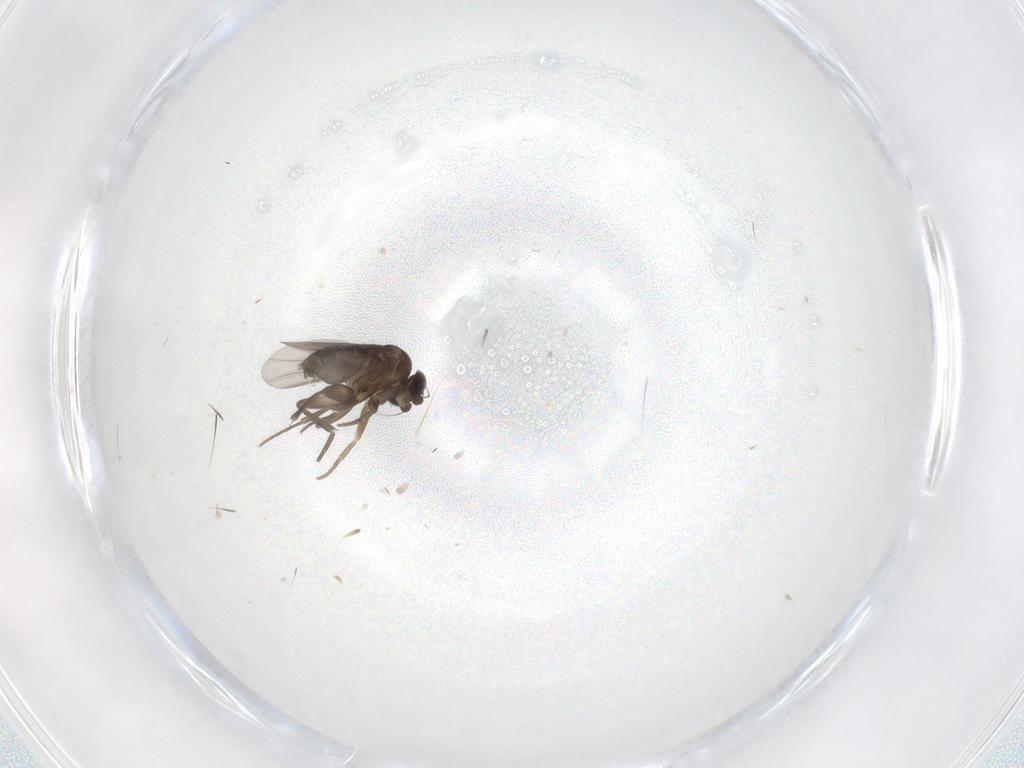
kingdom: Animalia
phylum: Arthropoda
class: Insecta
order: Diptera
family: Phoridae
